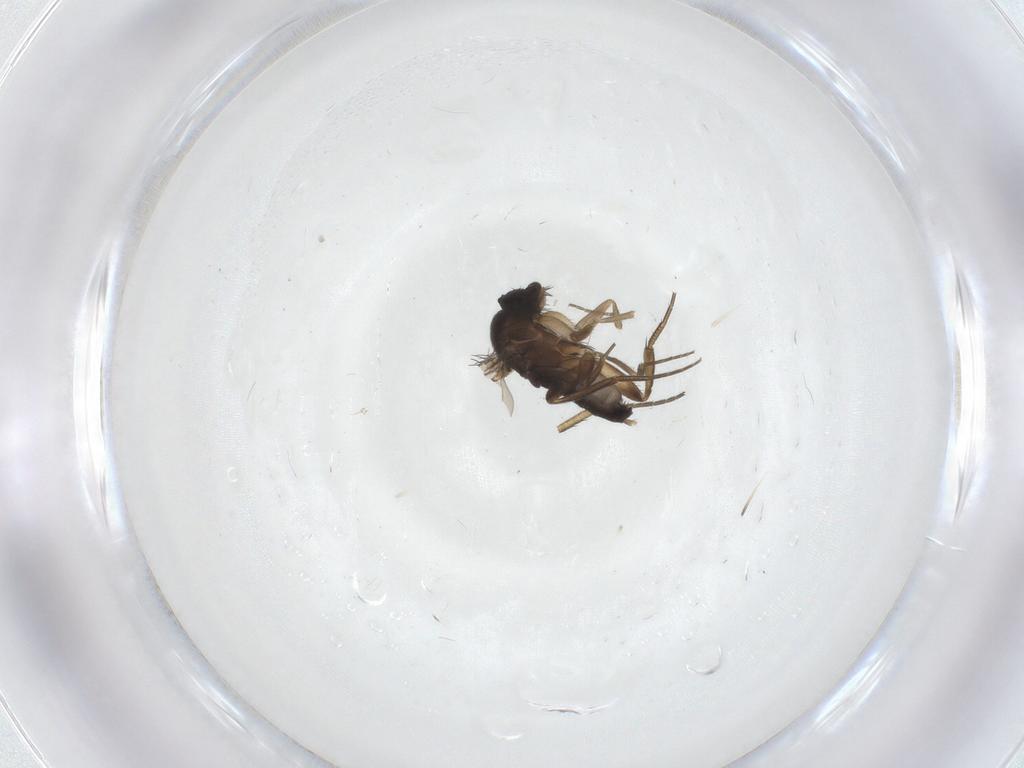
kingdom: Animalia
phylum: Arthropoda
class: Insecta
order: Diptera
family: Phoridae
